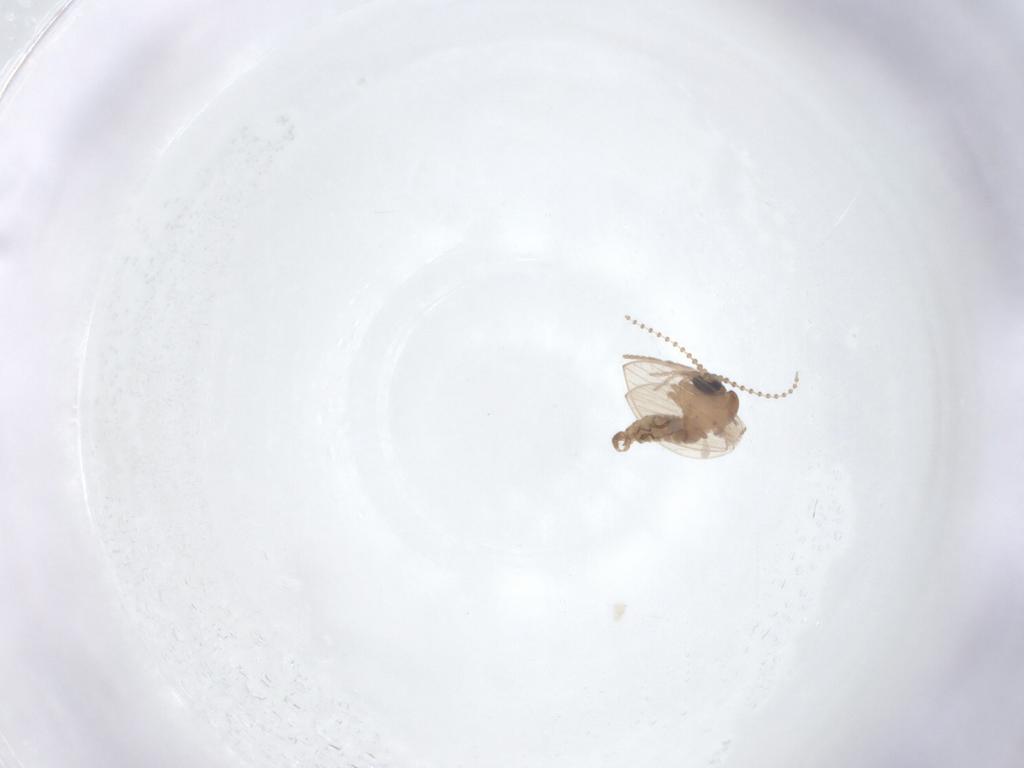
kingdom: Animalia
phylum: Arthropoda
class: Insecta
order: Diptera
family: Psychodidae
